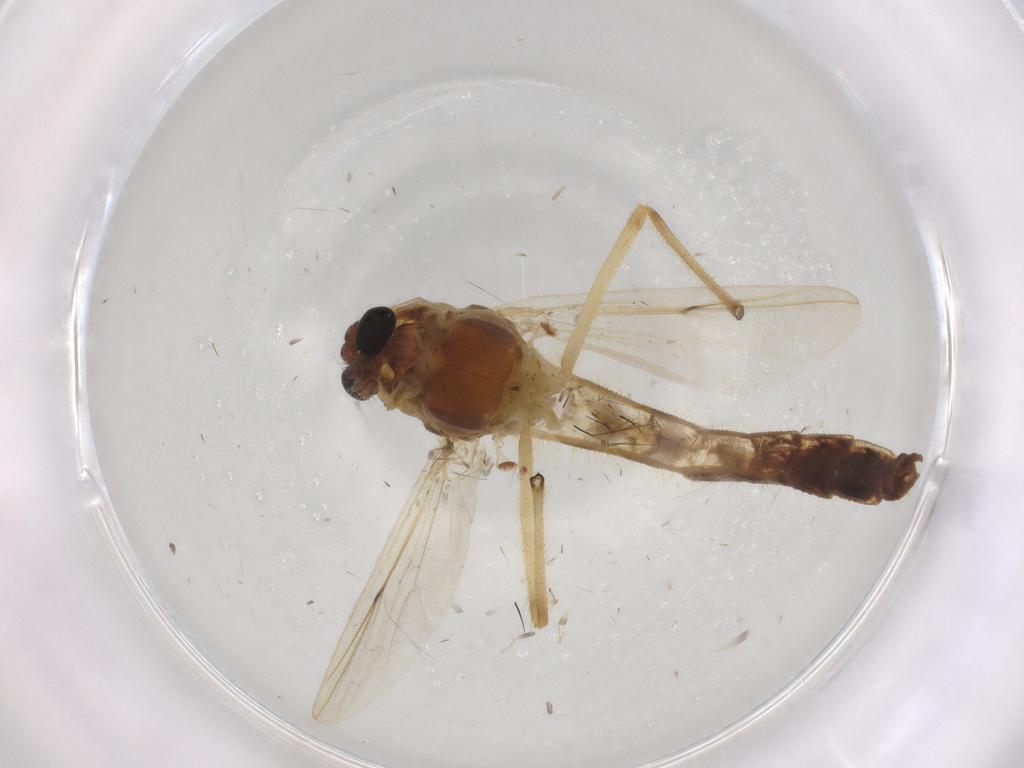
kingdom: Animalia
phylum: Arthropoda
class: Insecta
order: Diptera
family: Chironomidae
